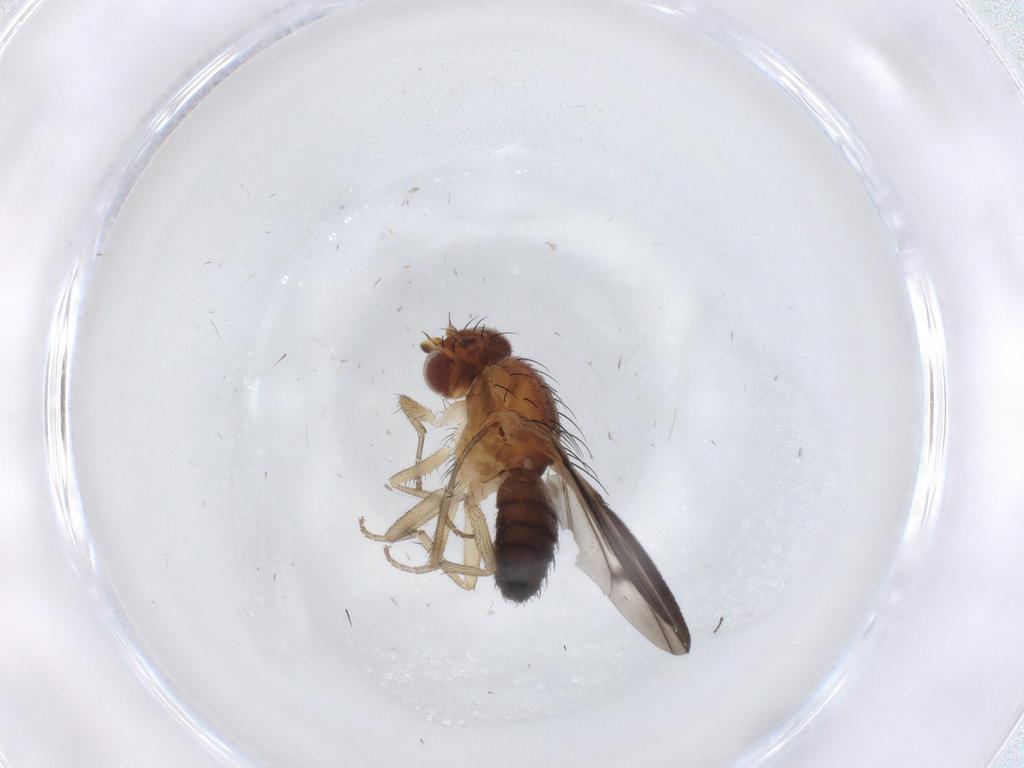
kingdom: Animalia
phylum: Arthropoda
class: Insecta
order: Diptera
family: Heleomyzidae
